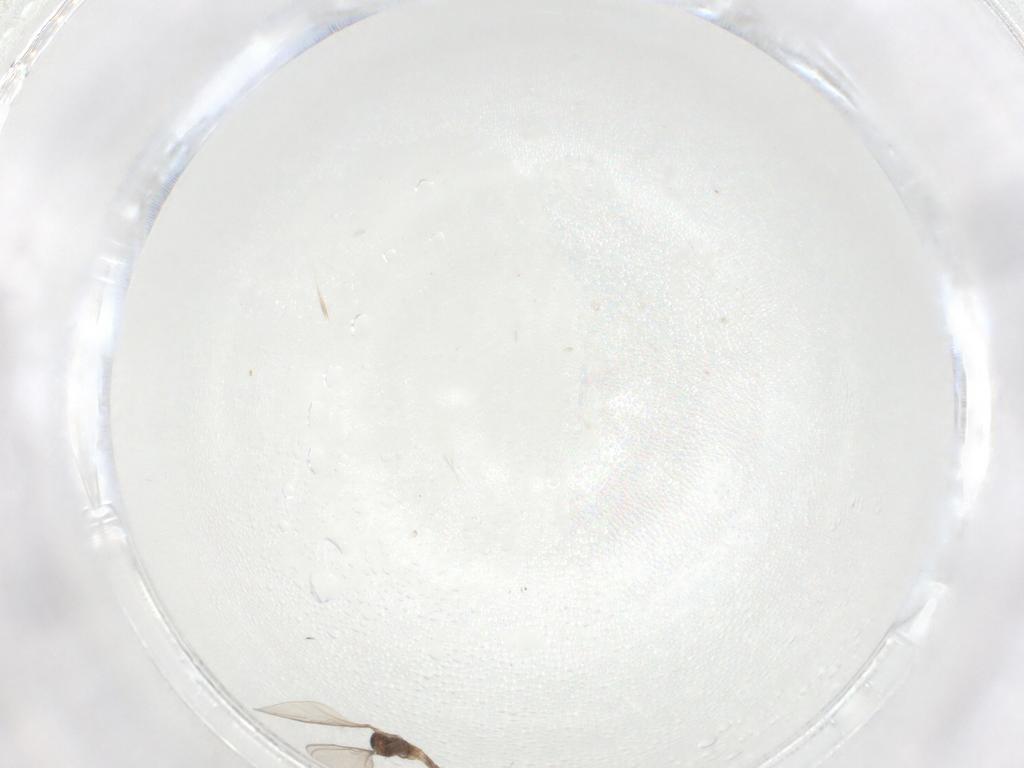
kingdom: Animalia
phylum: Arthropoda
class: Insecta
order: Diptera
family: Cecidomyiidae
